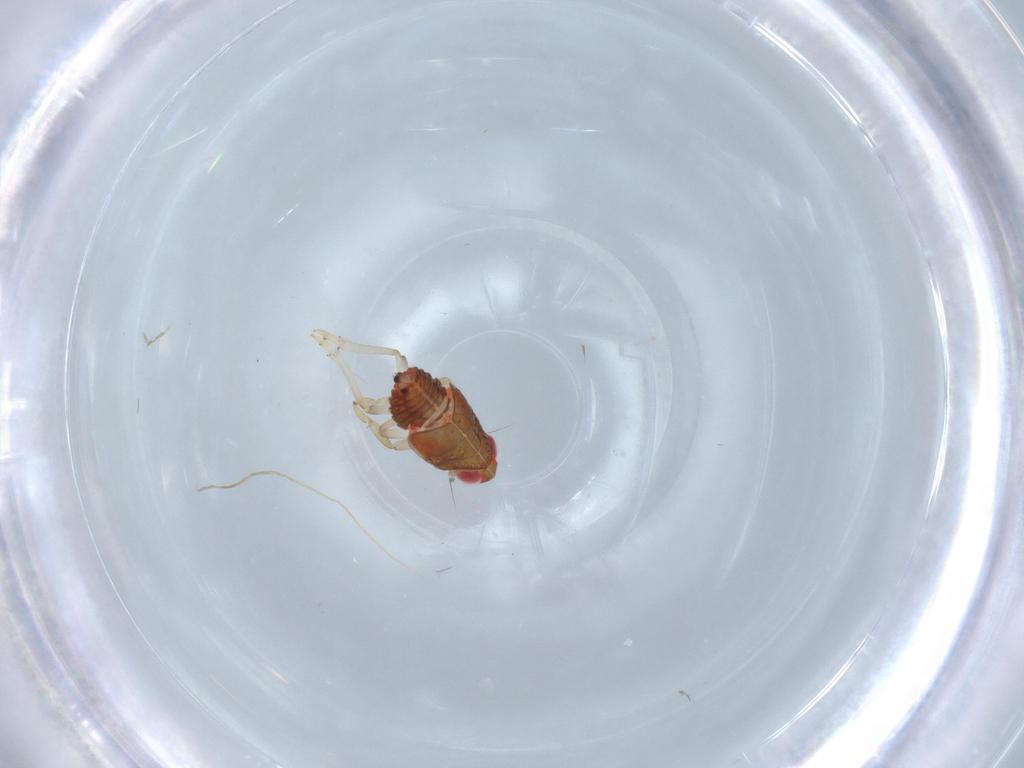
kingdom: Animalia
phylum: Arthropoda
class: Insecta
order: Hemiptera
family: Issidae
